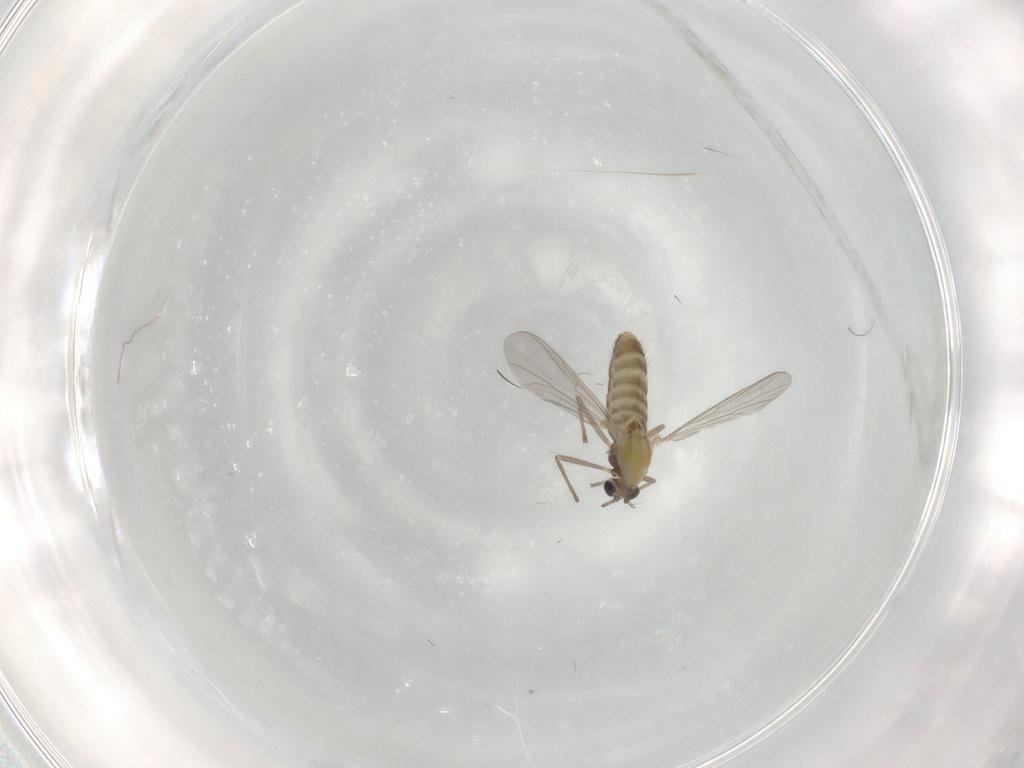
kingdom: Animalia
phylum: Arthropoda
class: Insecta
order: Diptera
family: Chironomidae
